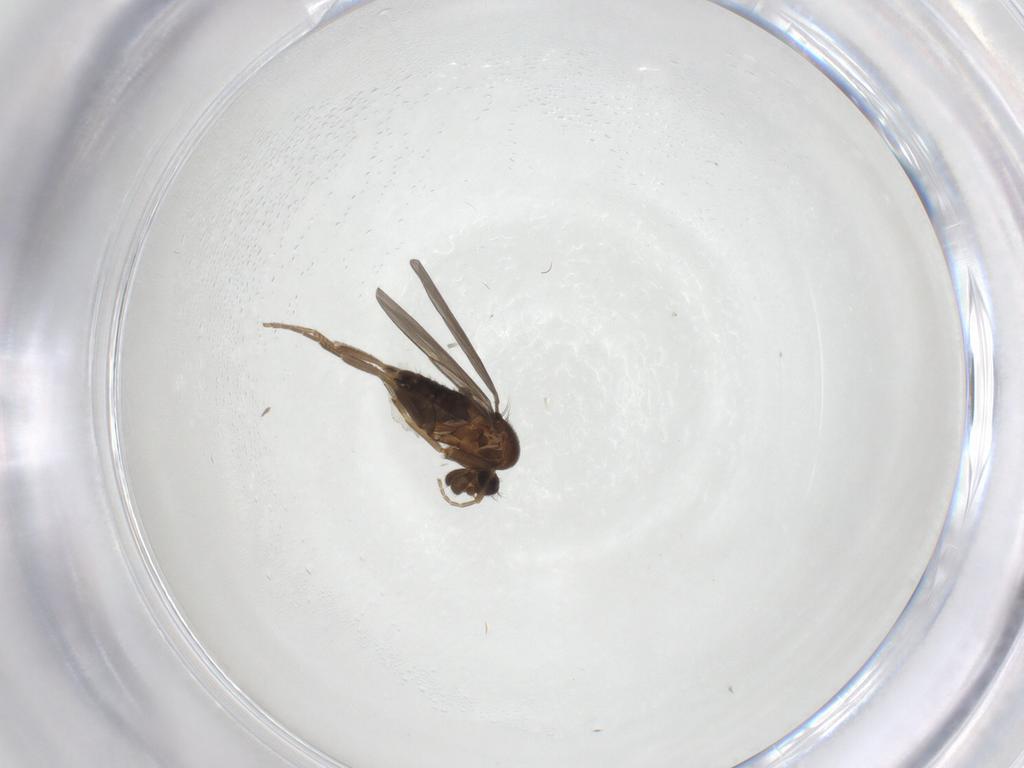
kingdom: Animalia
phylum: Arthropoda
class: Insecta
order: Diptera
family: Phoridae
